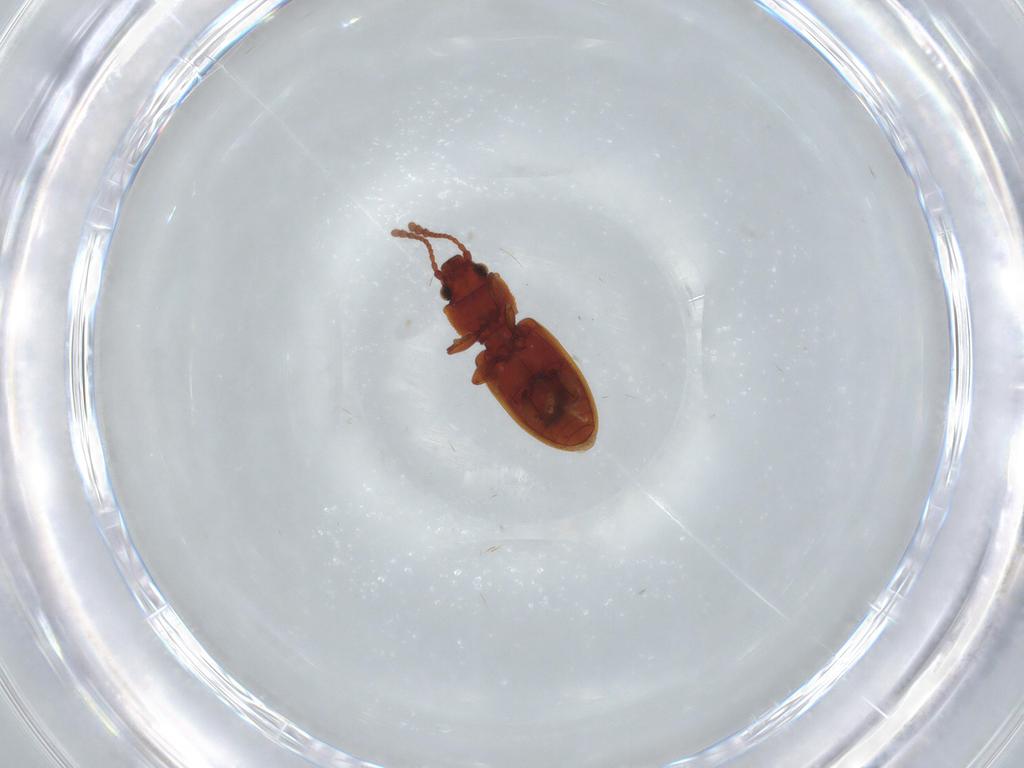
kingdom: Animalia
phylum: Arthropoda
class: Insecta
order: Coleoptera
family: Silvanidae
